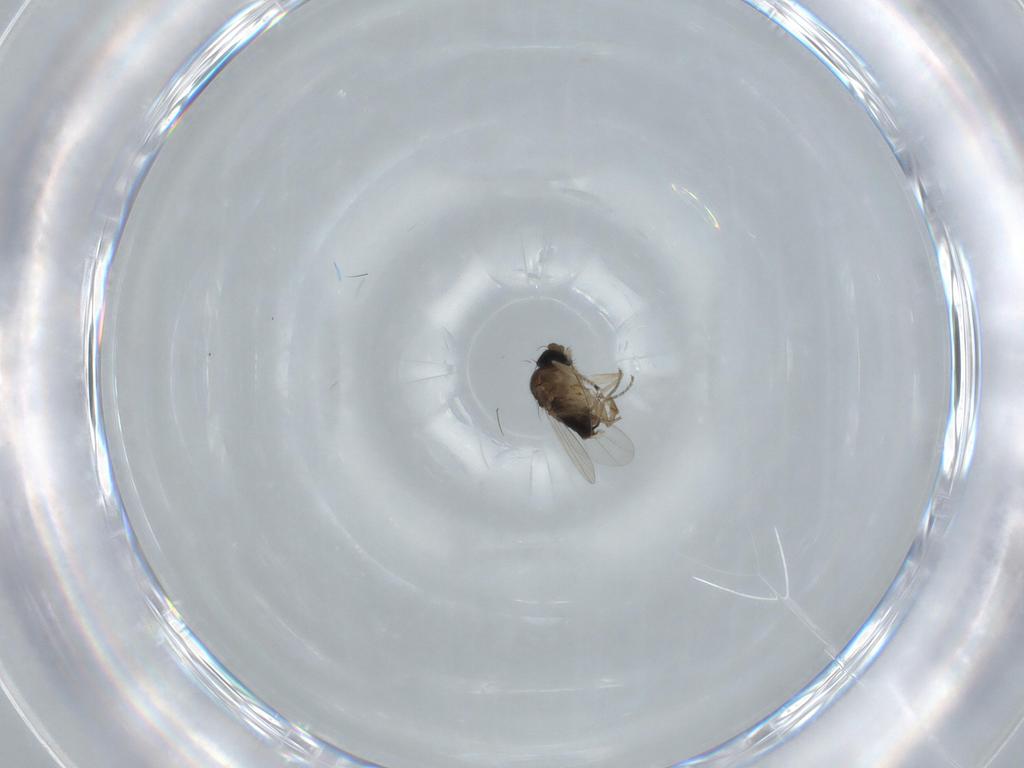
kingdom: Animalia
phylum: Arthropoda
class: Insecta
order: Diptera
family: Phoridae
